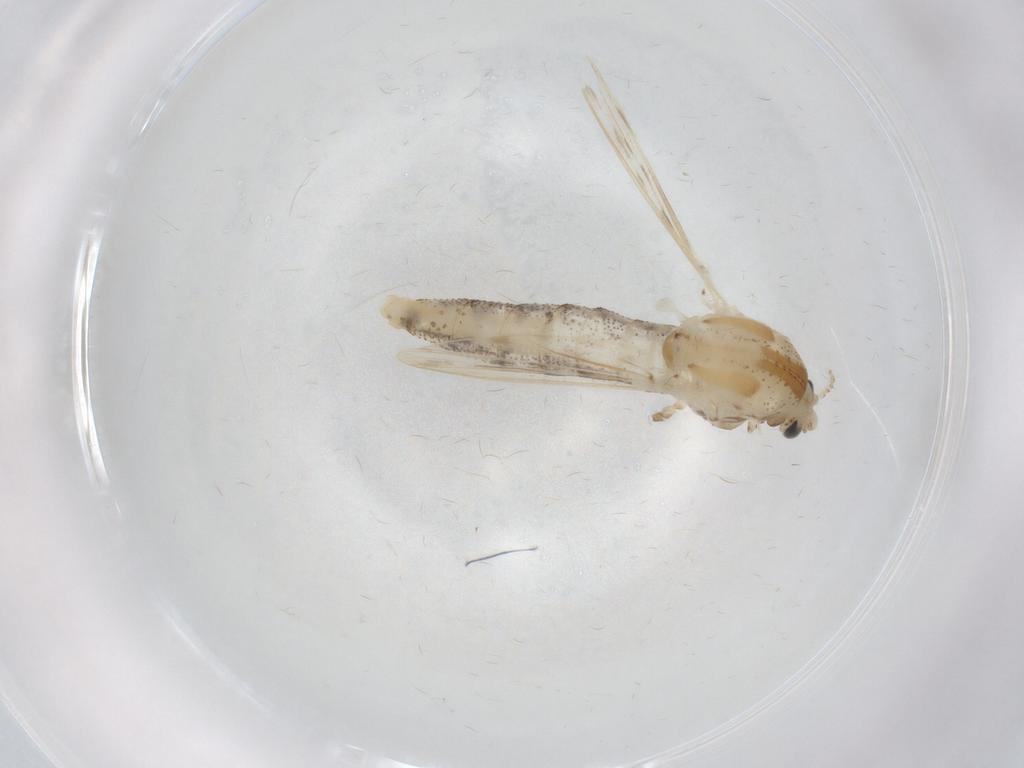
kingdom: Animalia
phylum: Arthropoda
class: Insecta
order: Diptera
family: Chaoboridae
